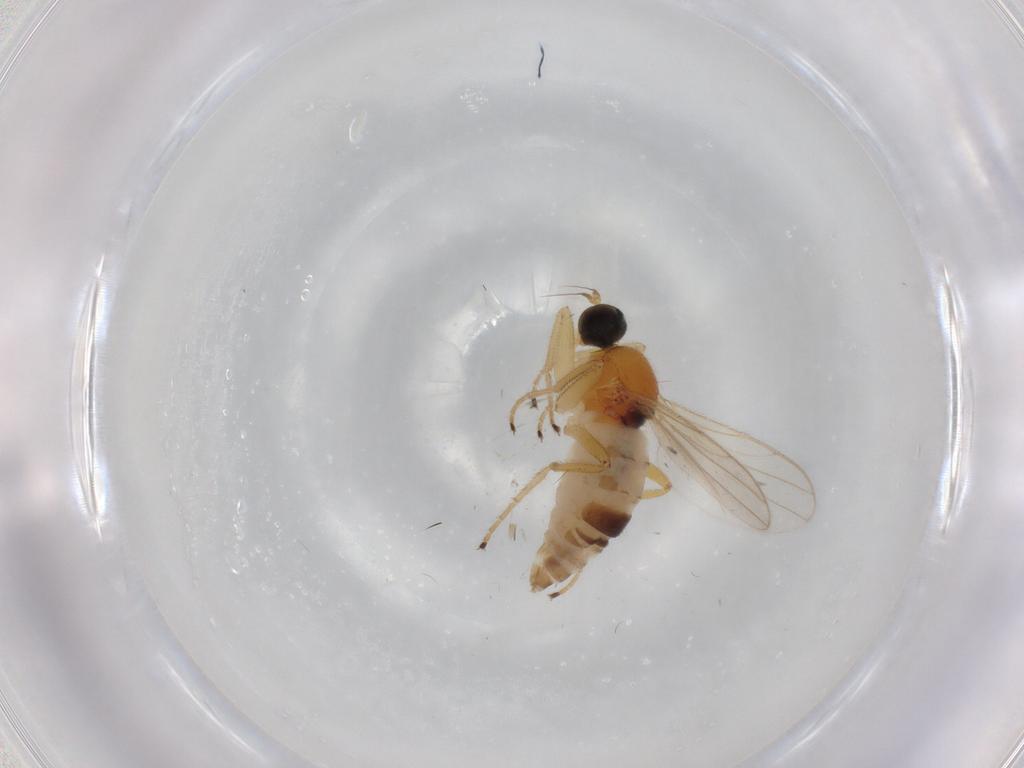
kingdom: Animalia
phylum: Arthropoda
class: Insecta
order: Diptera
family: Hybotidae
